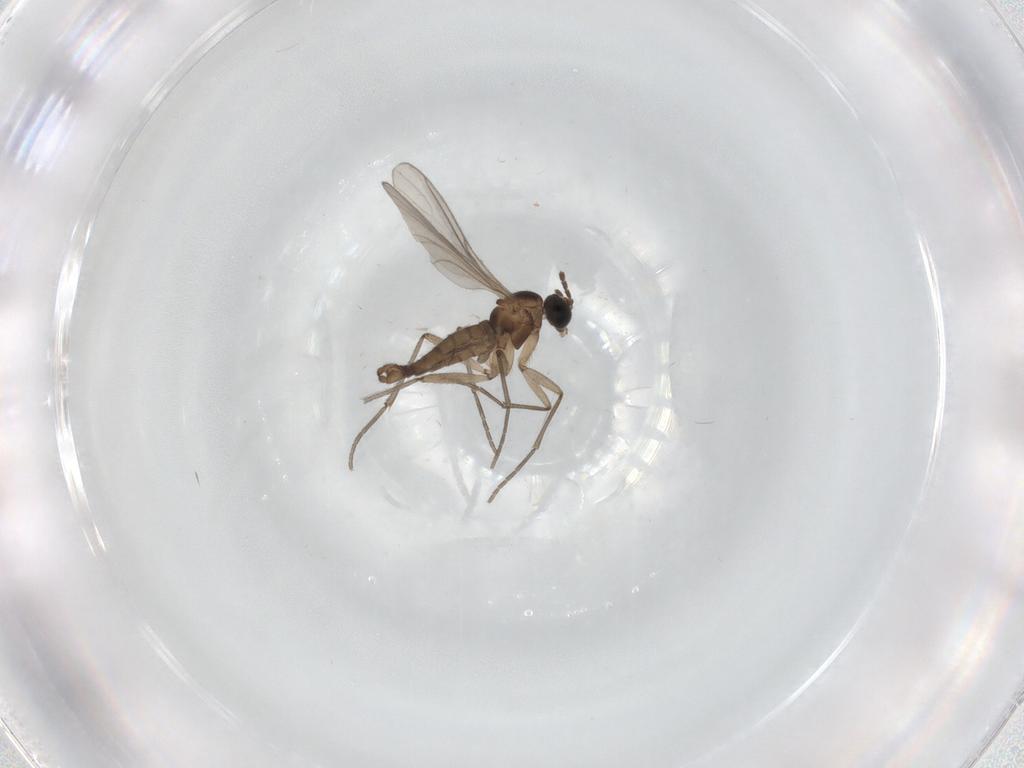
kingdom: Animalia
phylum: Arthropoda
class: Insecta
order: Diptera
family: Sciaridae
